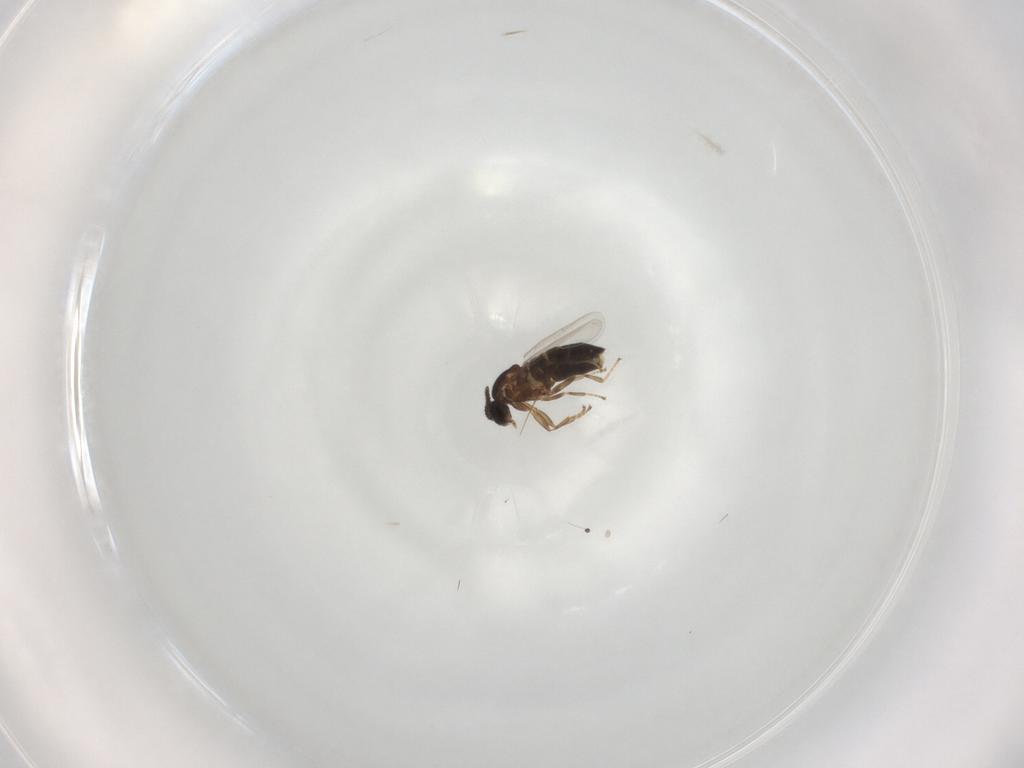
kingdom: Animalia
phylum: Arthropoda
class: Insecta
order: Diptera
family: Scatopsidae
